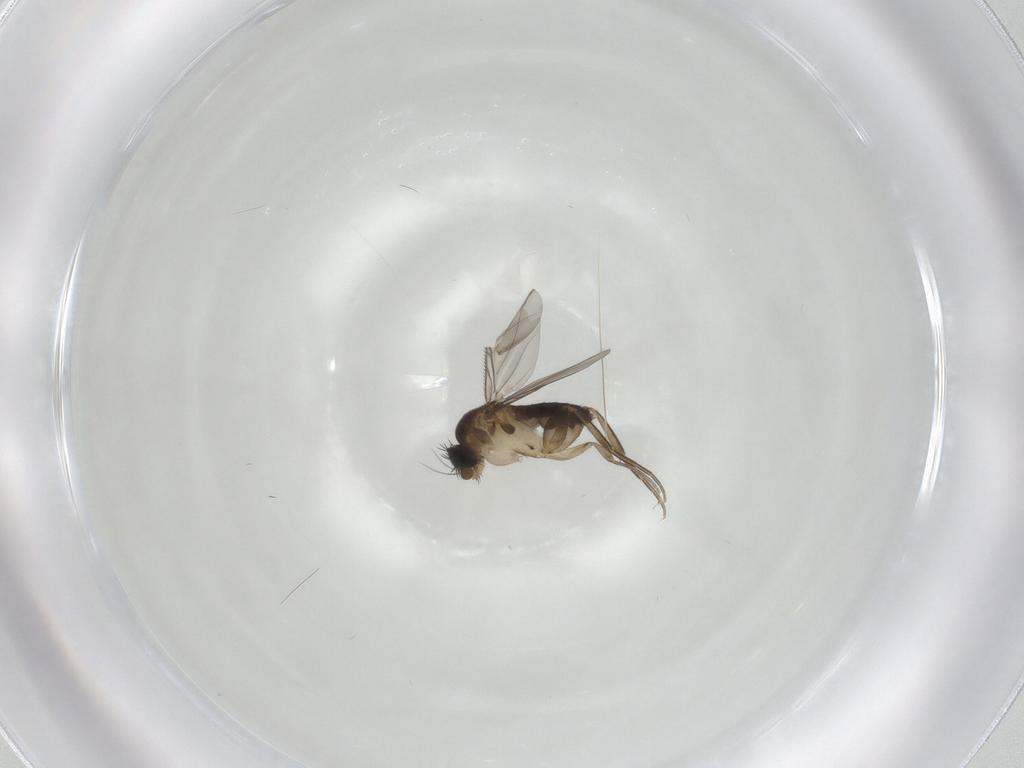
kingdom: Animalia
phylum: Arthropoda
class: Insecta
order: Diptera
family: Phoridae
